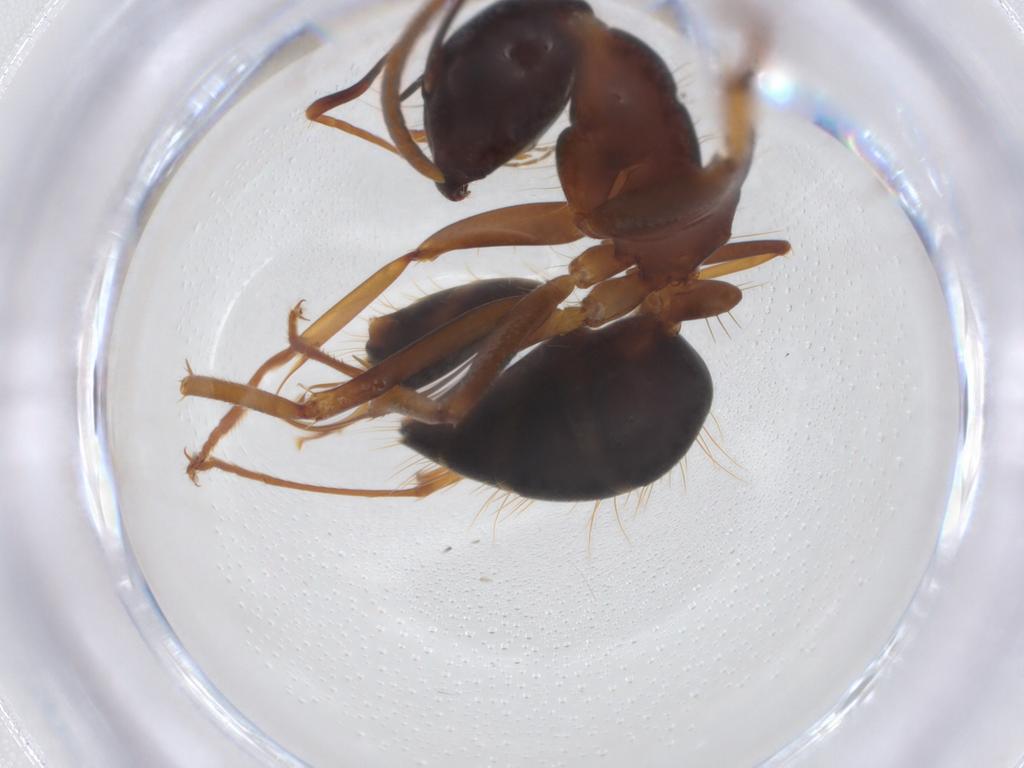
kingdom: Animalia
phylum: Arthropoda
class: Insecta
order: Hymenoptera
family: Formicidae
